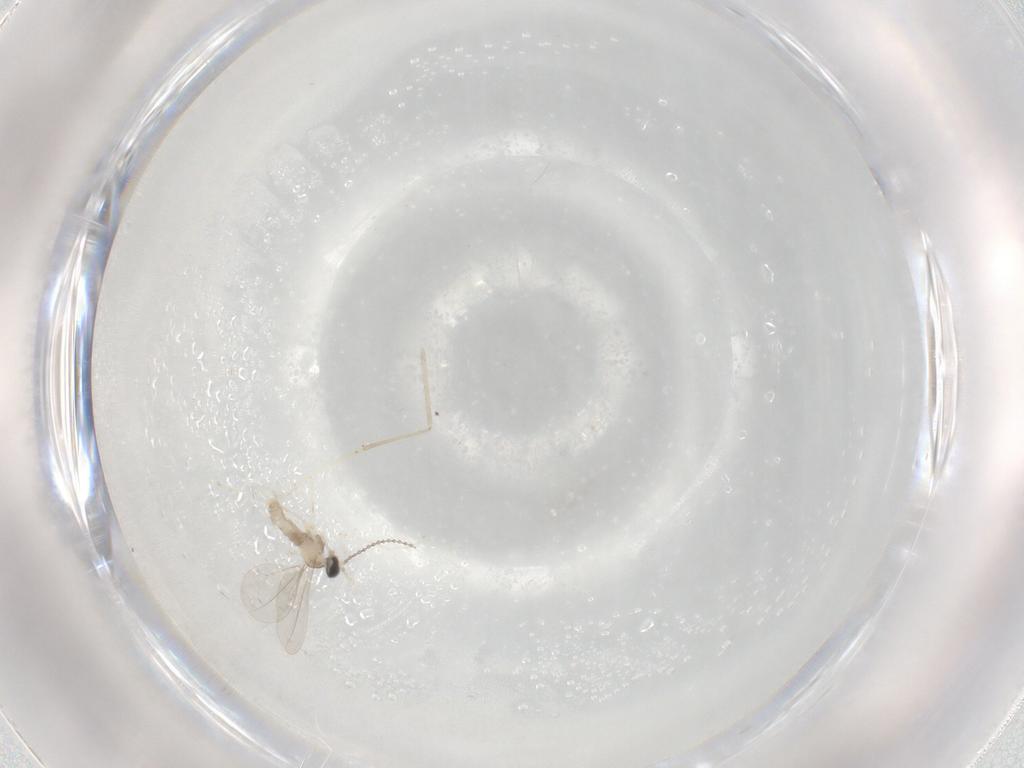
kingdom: Animalia
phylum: Arthropoda
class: Insecta
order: Diptera
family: Cecidomyiidae
